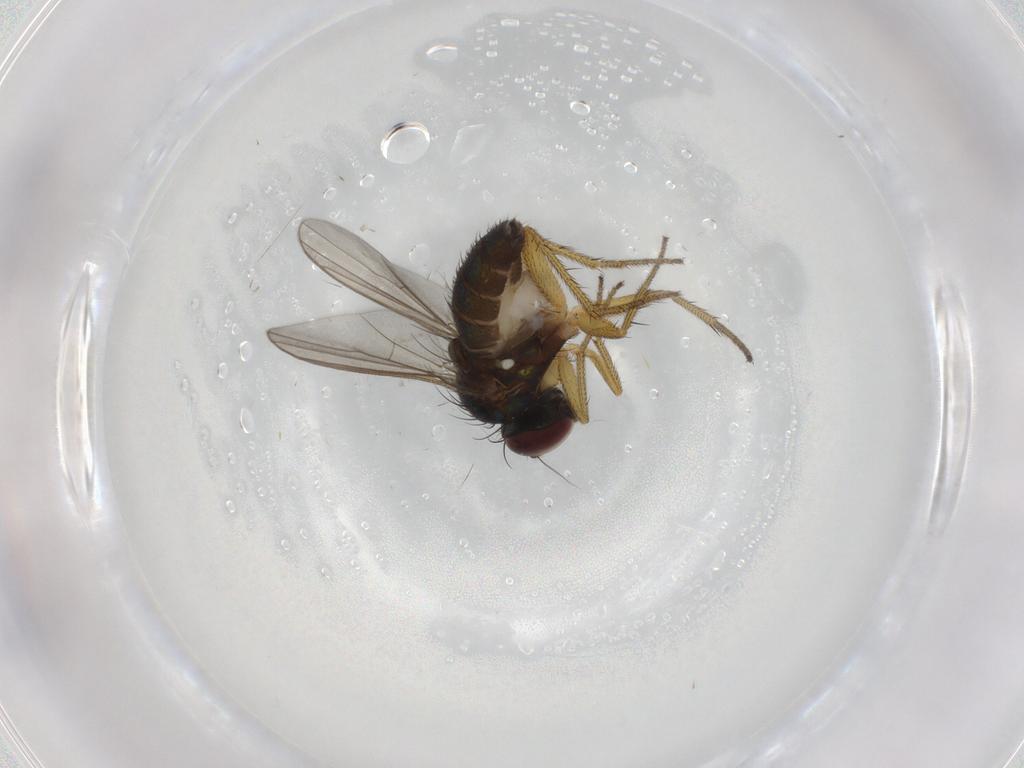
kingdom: Animalia
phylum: Arthropoda
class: Insecta
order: Diptera
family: Dolichopodidae
